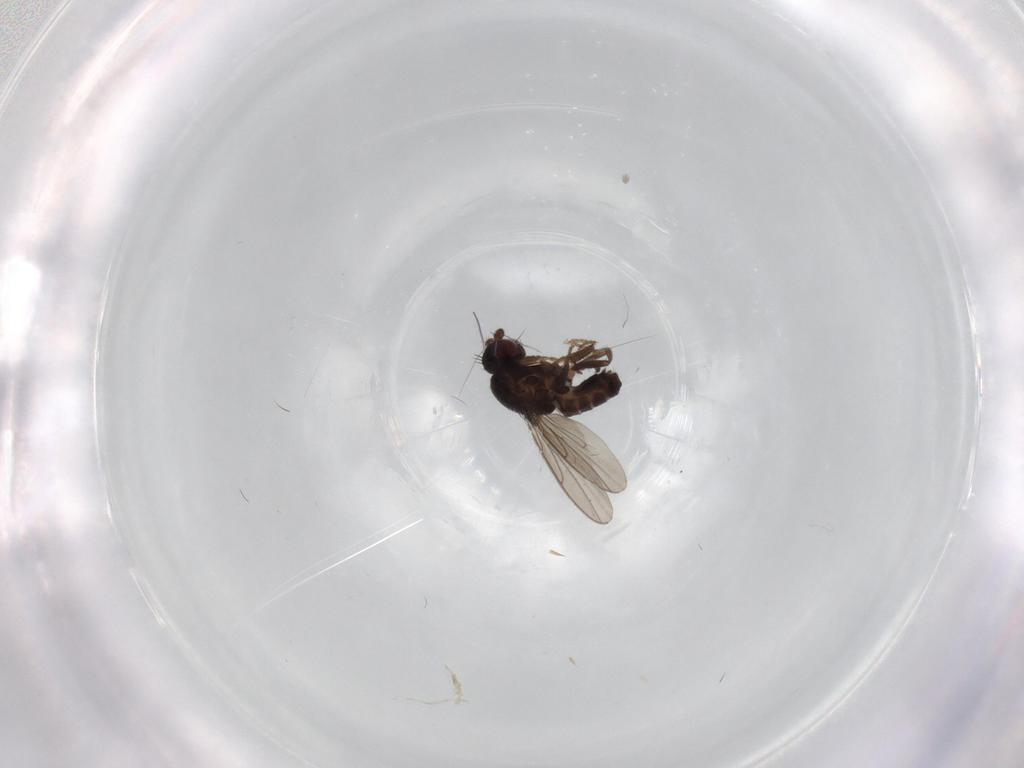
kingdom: Animalia
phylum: Arthropoda
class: Insecta
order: Diptera
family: Sphaeroceridae
